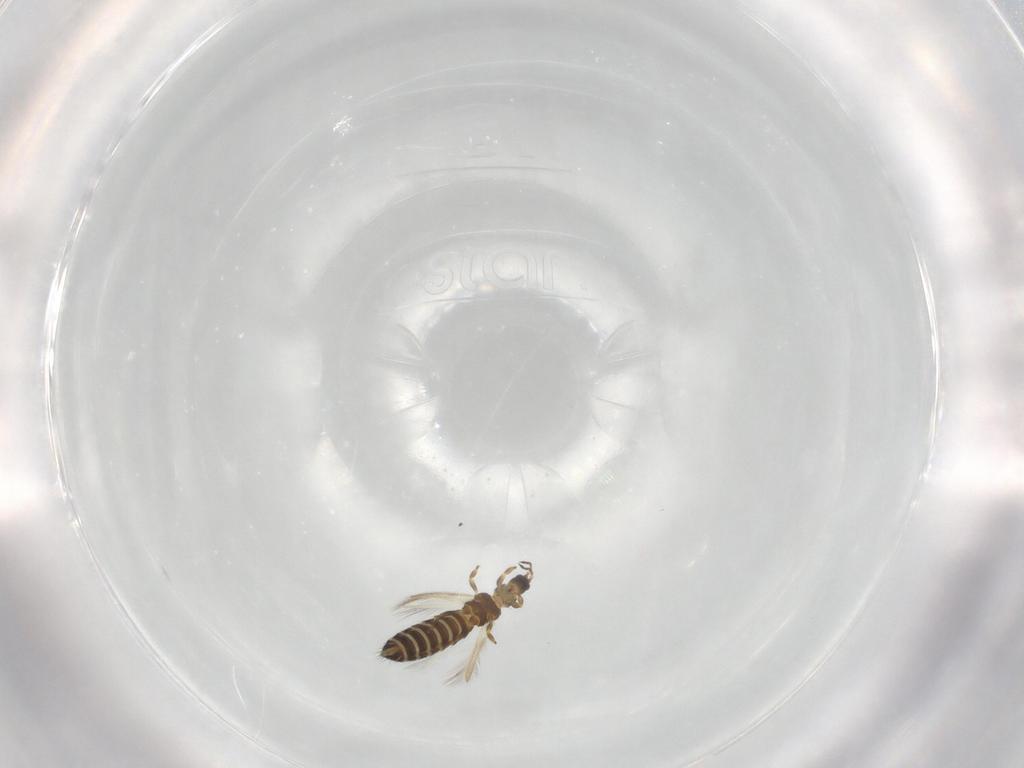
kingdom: Animalia
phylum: Arthropoda
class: Insecta
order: Thysanoptera
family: Thripidae
